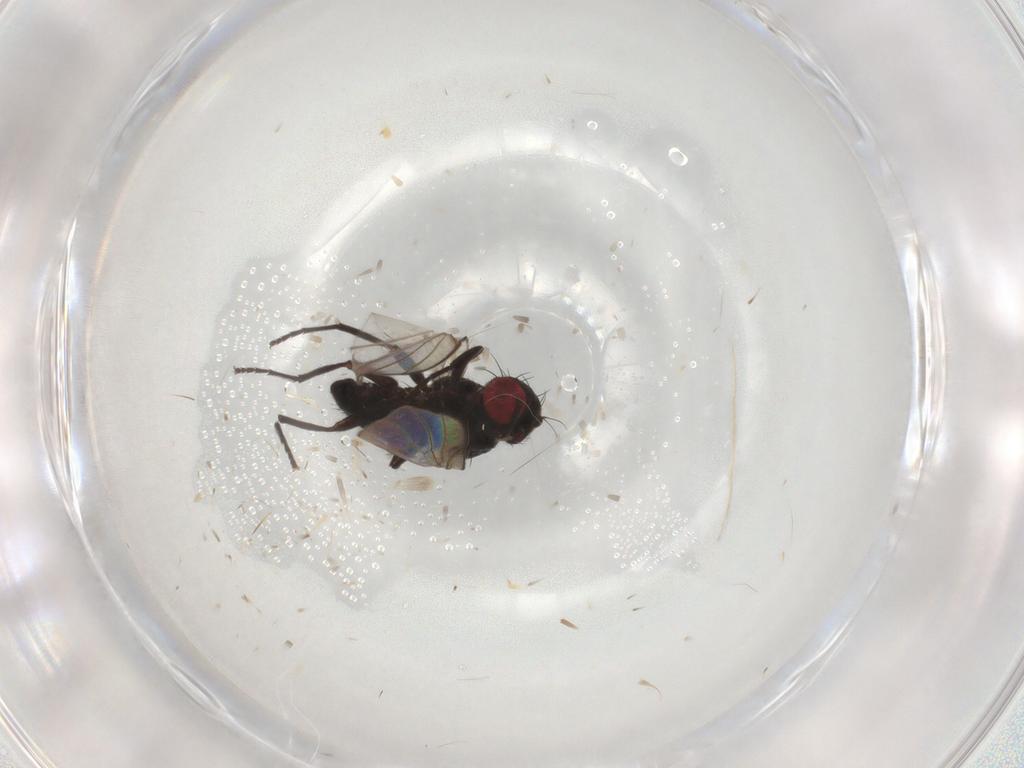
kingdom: Animalia
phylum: Arthropoda
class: Insecta
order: Diptera
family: Agromyzidae
